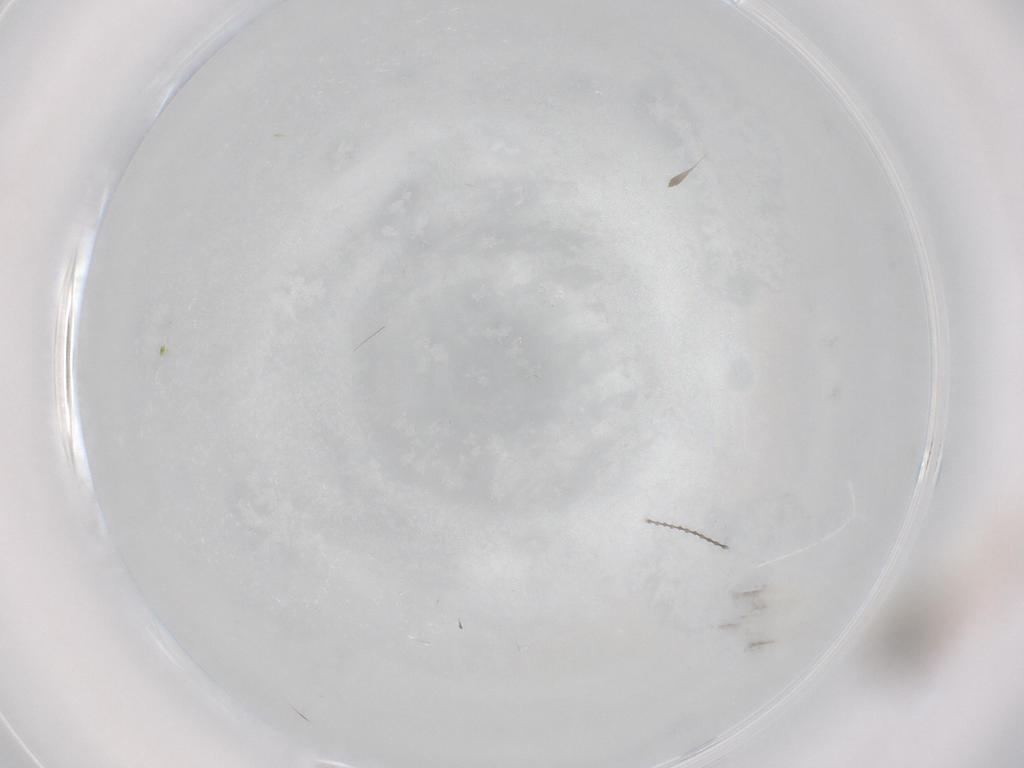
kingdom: Animalia
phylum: Arthropoda
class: Insecta
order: Diptera
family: Cecidomyiidae
